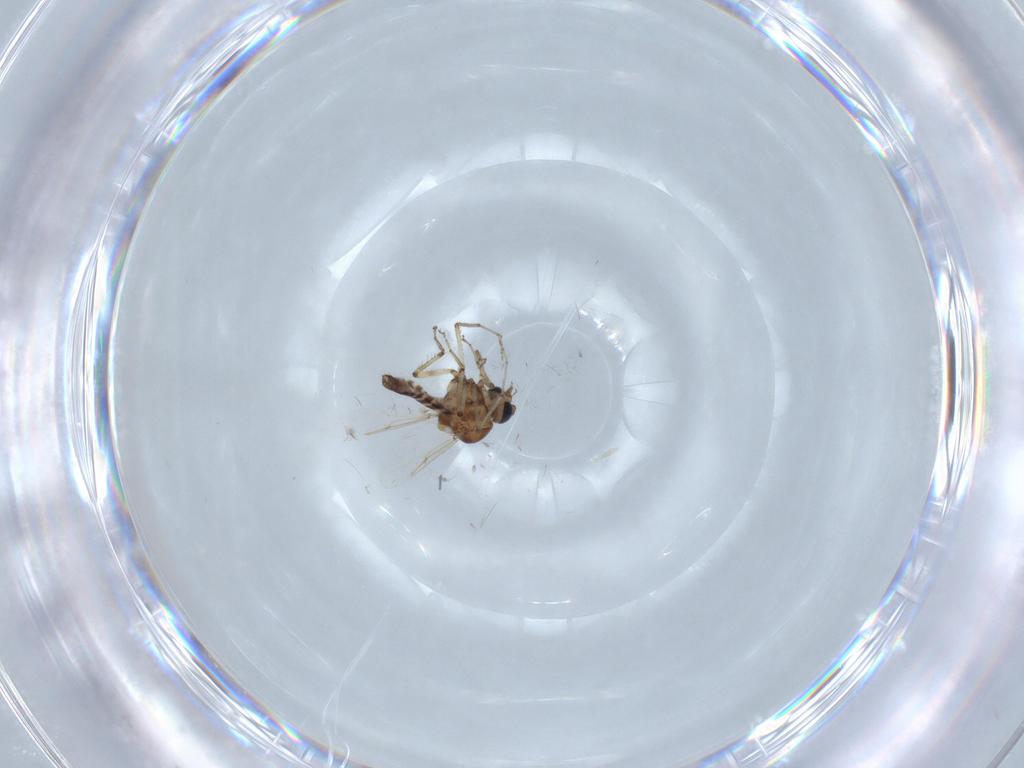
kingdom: Animalia
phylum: Arthropoda
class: Insecta
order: Diptera
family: Ceratopogonidae
